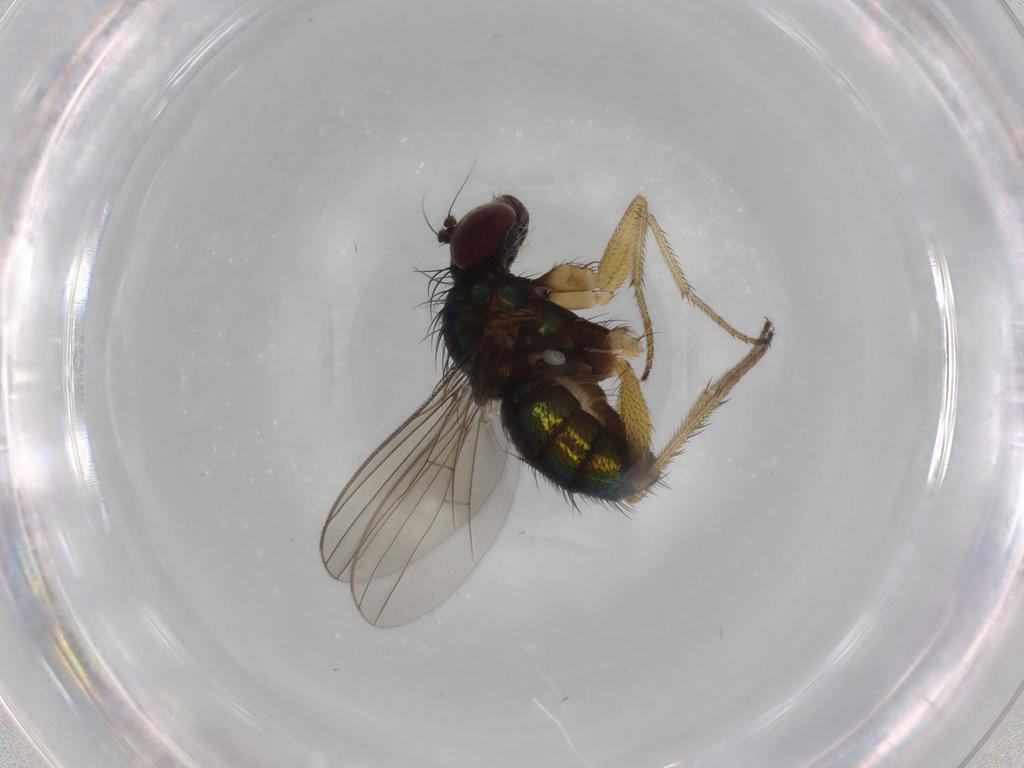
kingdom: Animalia
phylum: Arthropoda
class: Insecta
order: Diptera
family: Dolichopodidae
